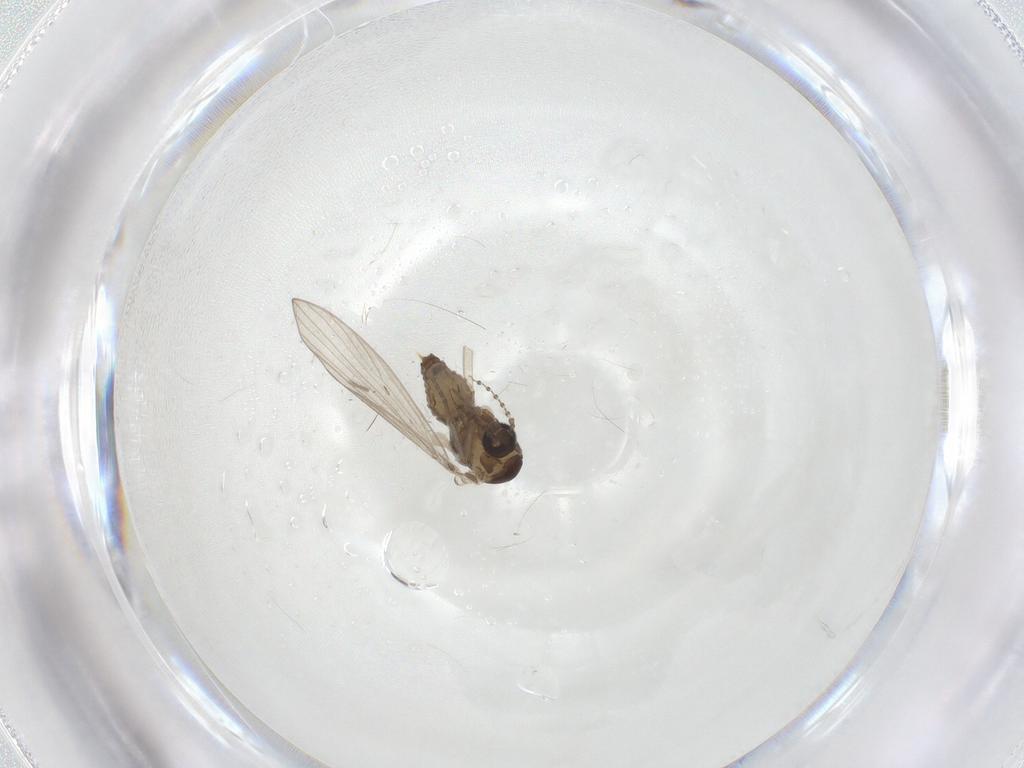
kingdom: Animalia
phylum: Arthropoda
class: Insecta
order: Diptera
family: Psychodidae
